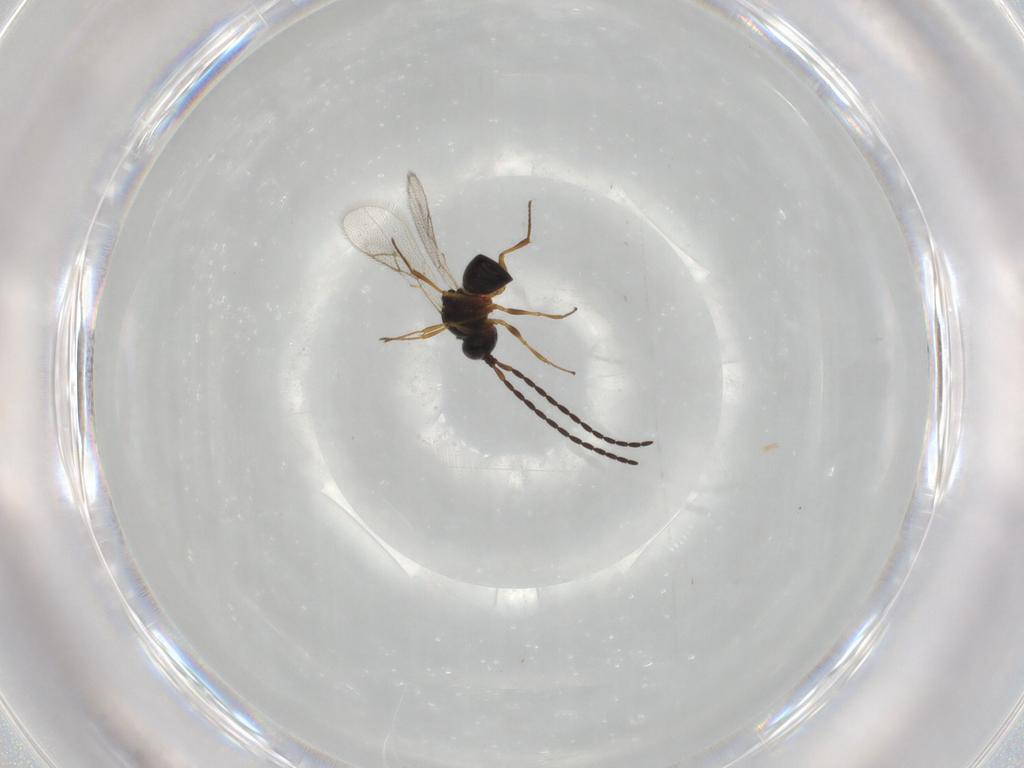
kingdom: Animalia
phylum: Arthropoda
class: Insecta
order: Hymenoptera
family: Figitidae
